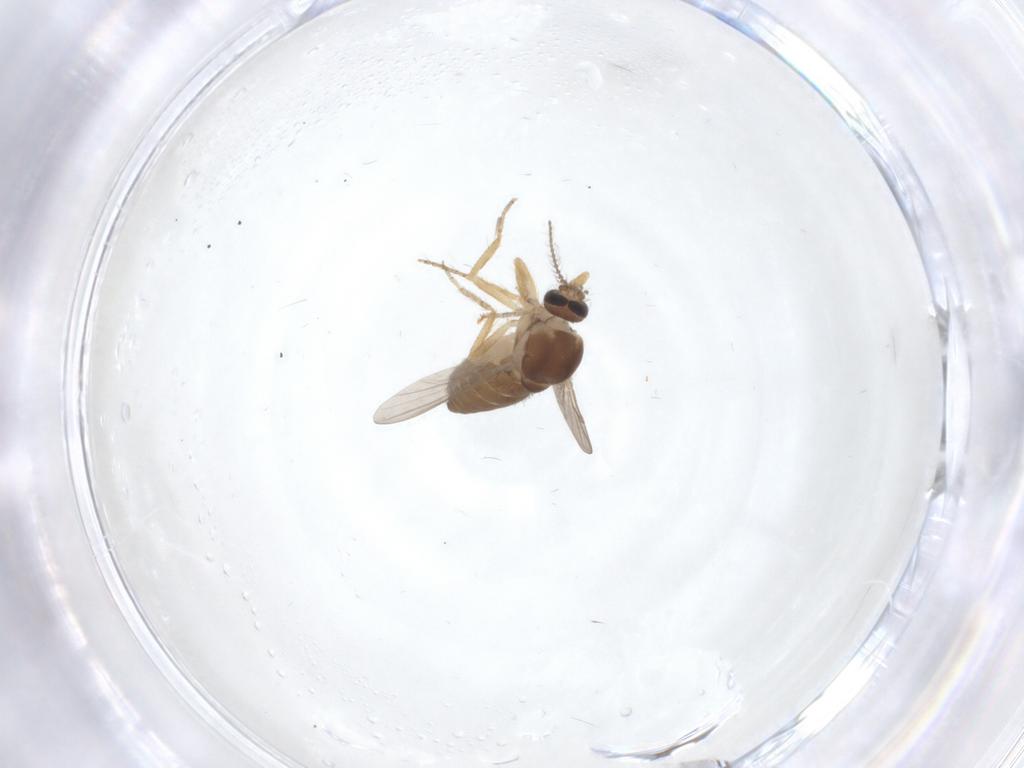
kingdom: Animalia
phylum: Arthropoda
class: Insecta
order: Diptera
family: Ceratopogonidae
